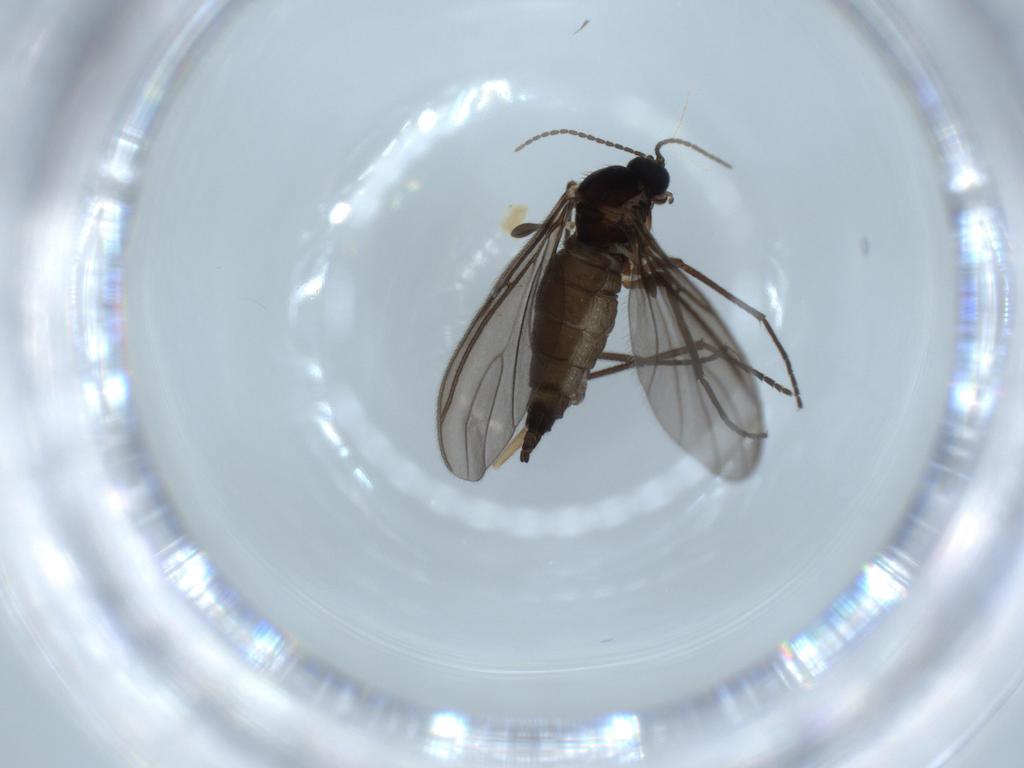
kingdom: Animalia
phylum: Arthropoda
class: Insecta
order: Diptera
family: Sciaridae
